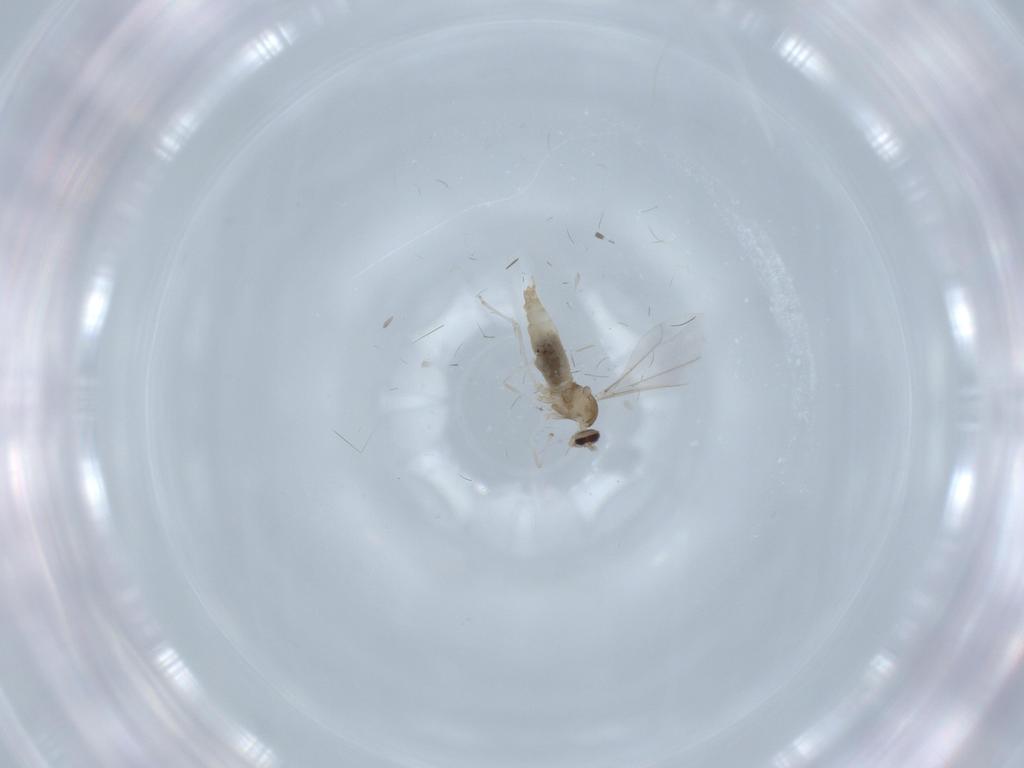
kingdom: Animalia
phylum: Arthropoda
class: Insecta
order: Diptera
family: Cecidomyiidae
